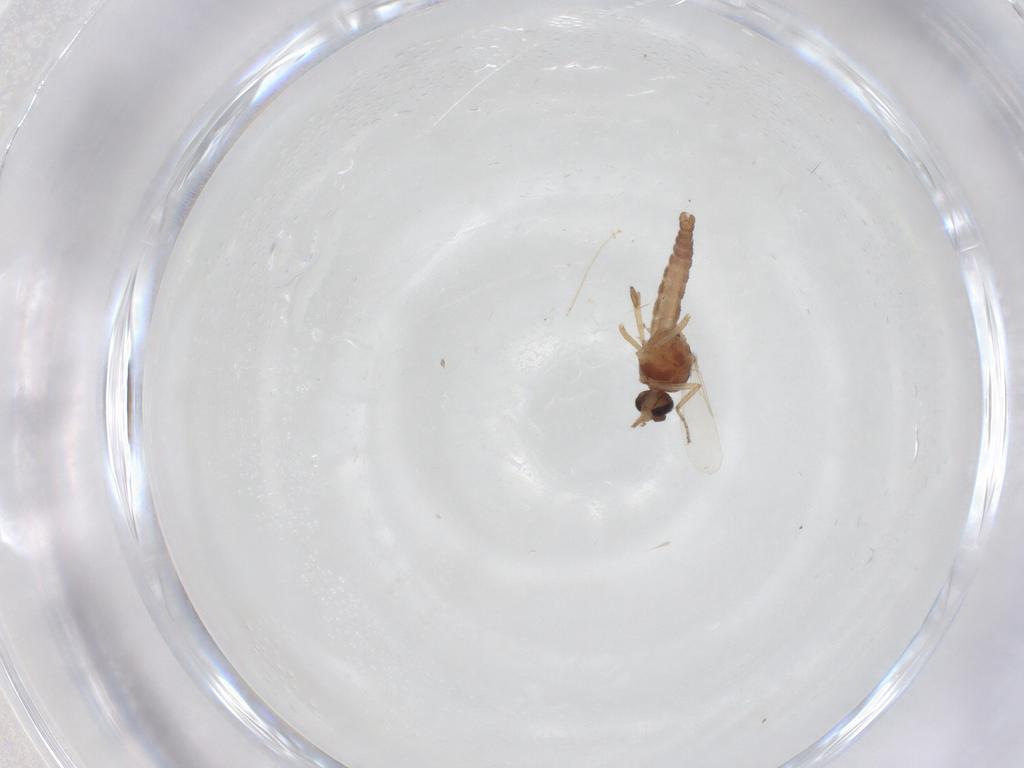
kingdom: Animalia
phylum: Arthropoda
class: Insecta
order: Diptera
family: Cecidomyiidae
